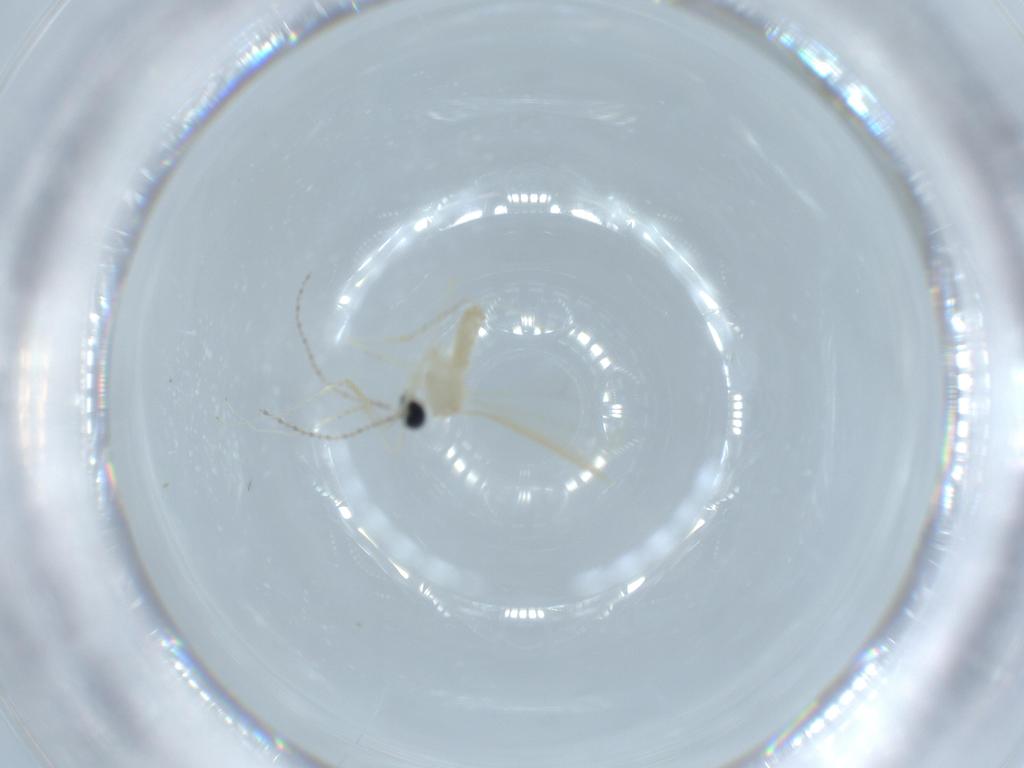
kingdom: Animalia
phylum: Arthropoda
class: Insecta
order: Diptera
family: Cecidomyiidae
